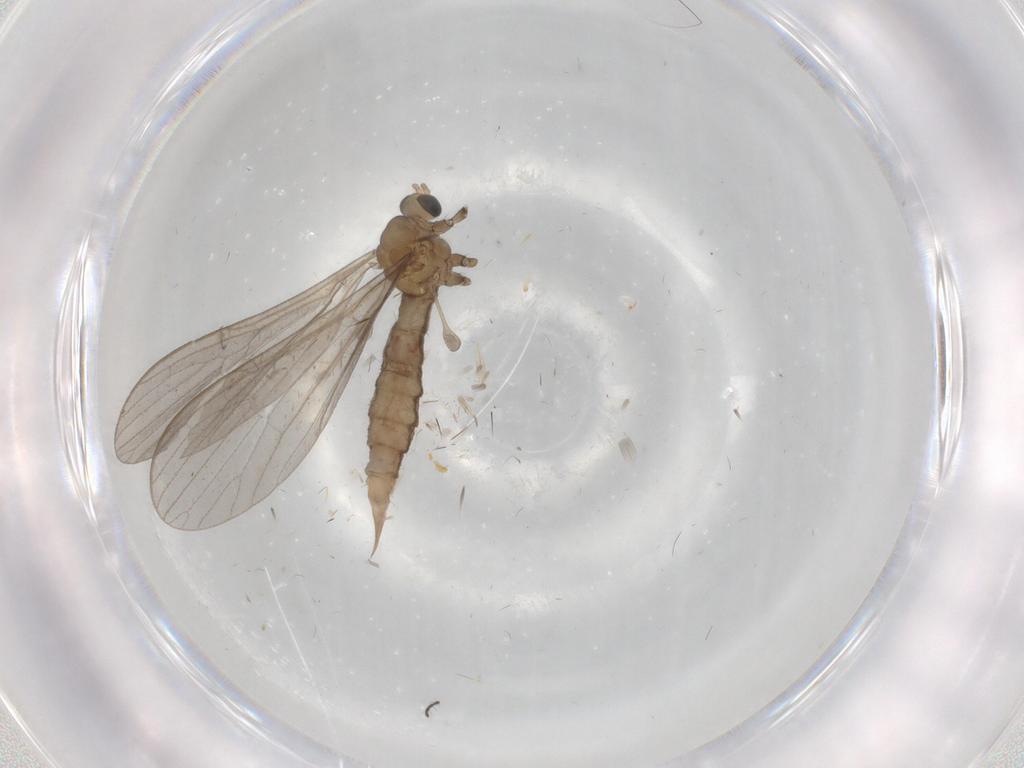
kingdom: Animalia
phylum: Arthropoda
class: Insecta
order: Diptera
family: Limoniidae
